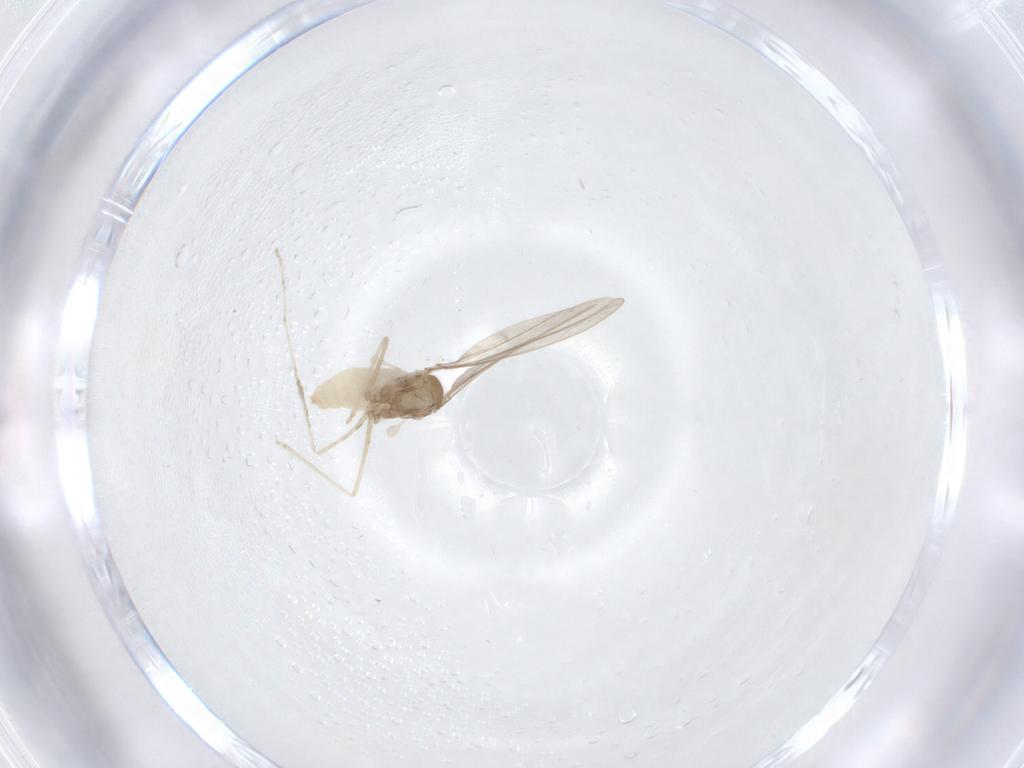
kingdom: Animalia
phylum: Arthropoda
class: Insecta
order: Diptera
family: Cecidomyiidae
